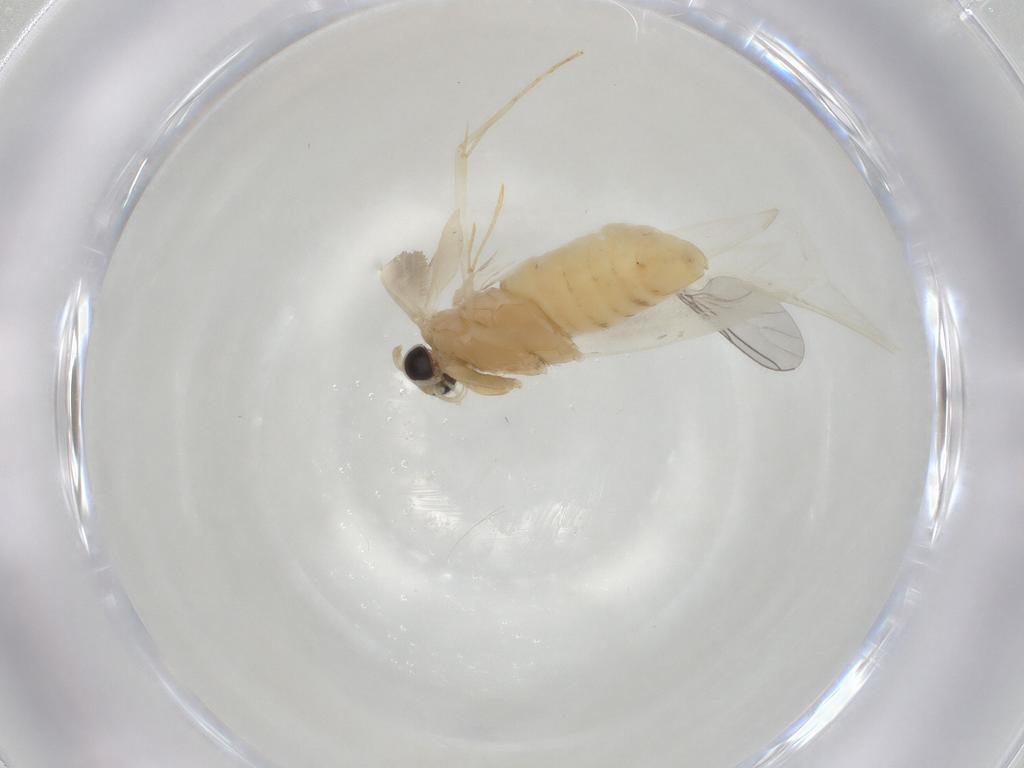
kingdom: Animalia
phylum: Arthropoda
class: Insecta
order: Lepidoptera
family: Tineidae
